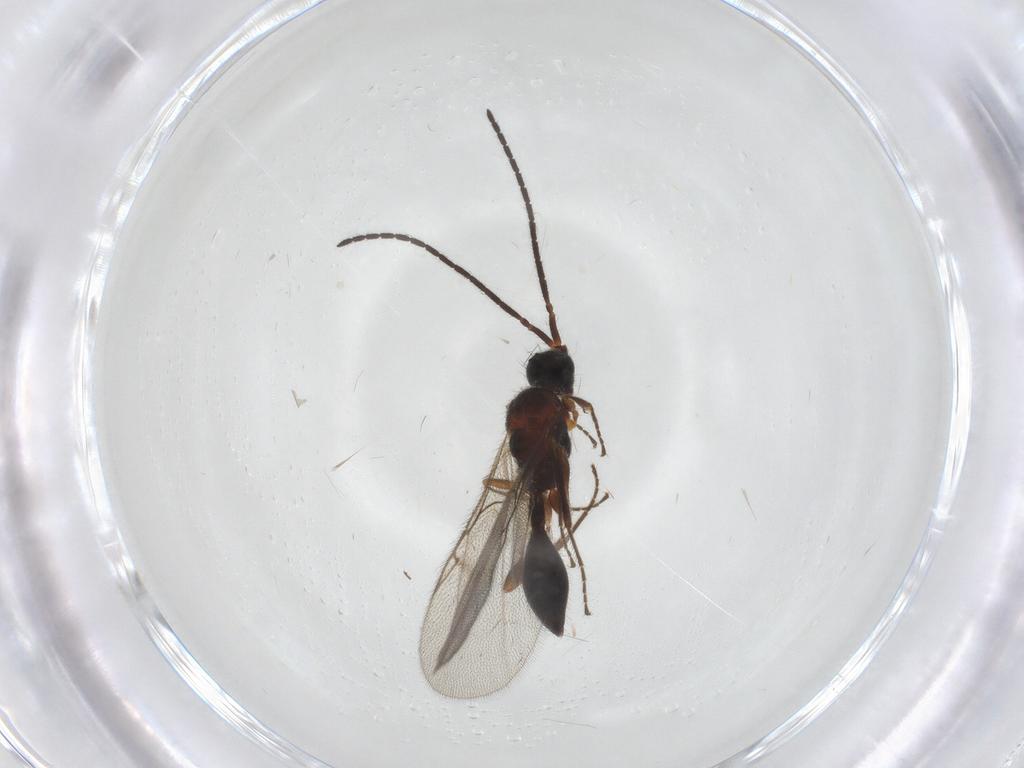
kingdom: Animalia
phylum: Arthropoda
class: Insecta
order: Hymenoptera
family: Diapriidae
